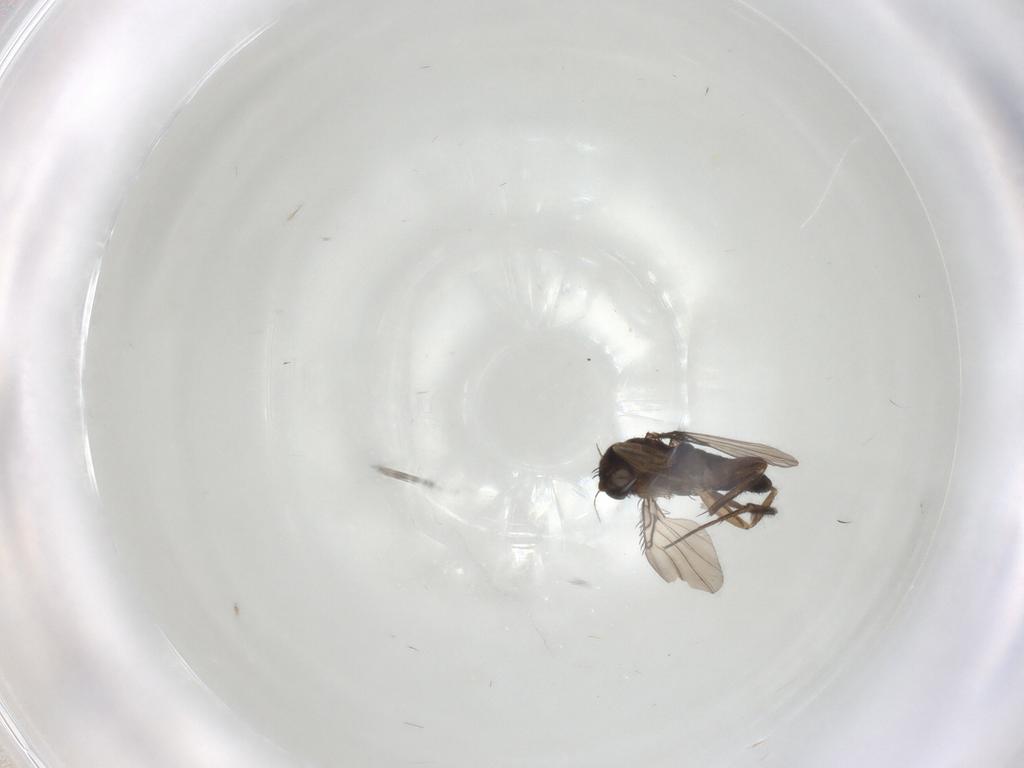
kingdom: Animalia
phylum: Arthropoda
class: Insecta
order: Diptera
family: Phoridae
